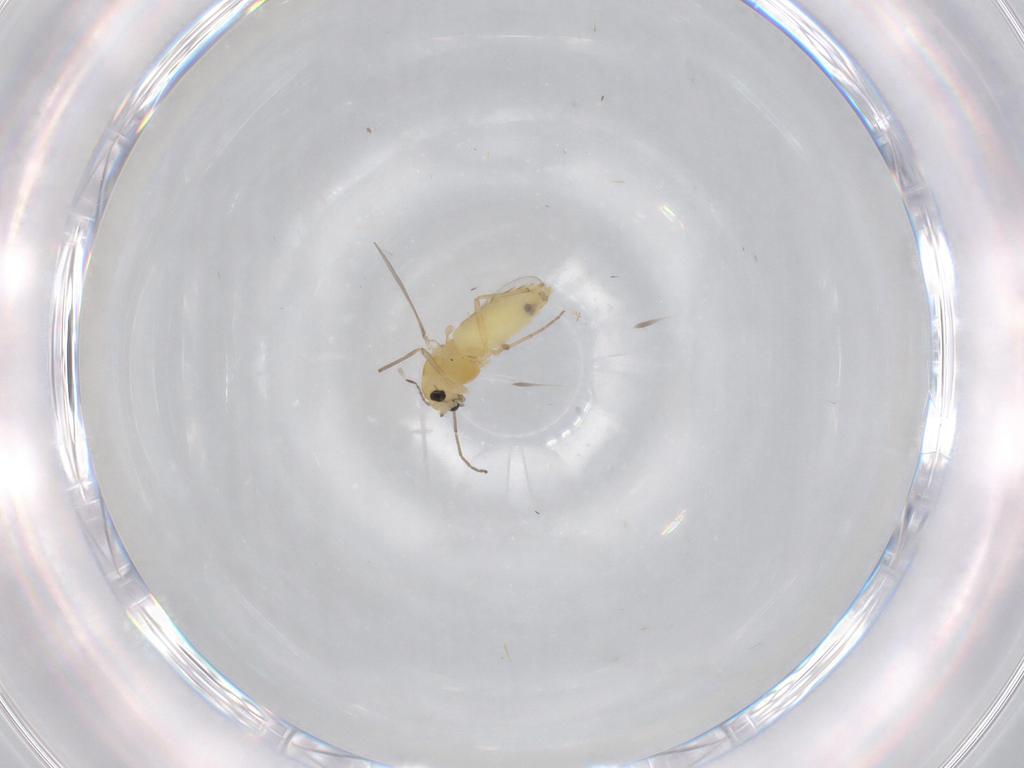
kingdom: Animalia
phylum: Arthropoda
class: Insecta
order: Diptera
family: Chironomidae
